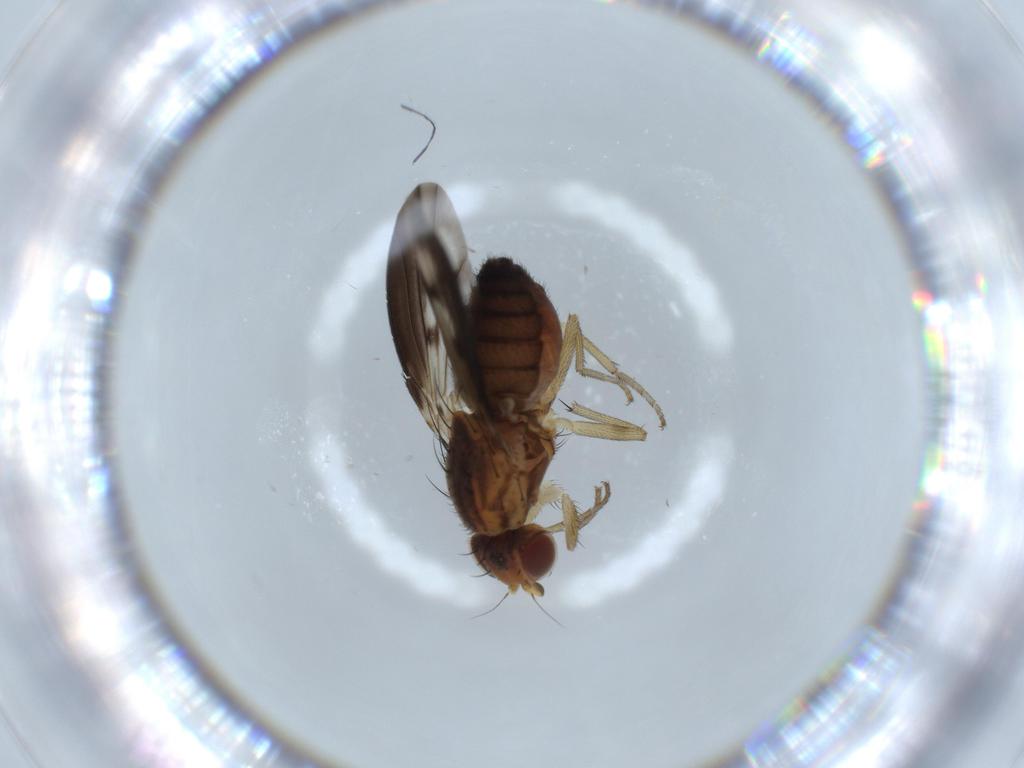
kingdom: Animalia
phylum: Arthropoda
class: Insecta
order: Diptera
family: Heleomyzidae
